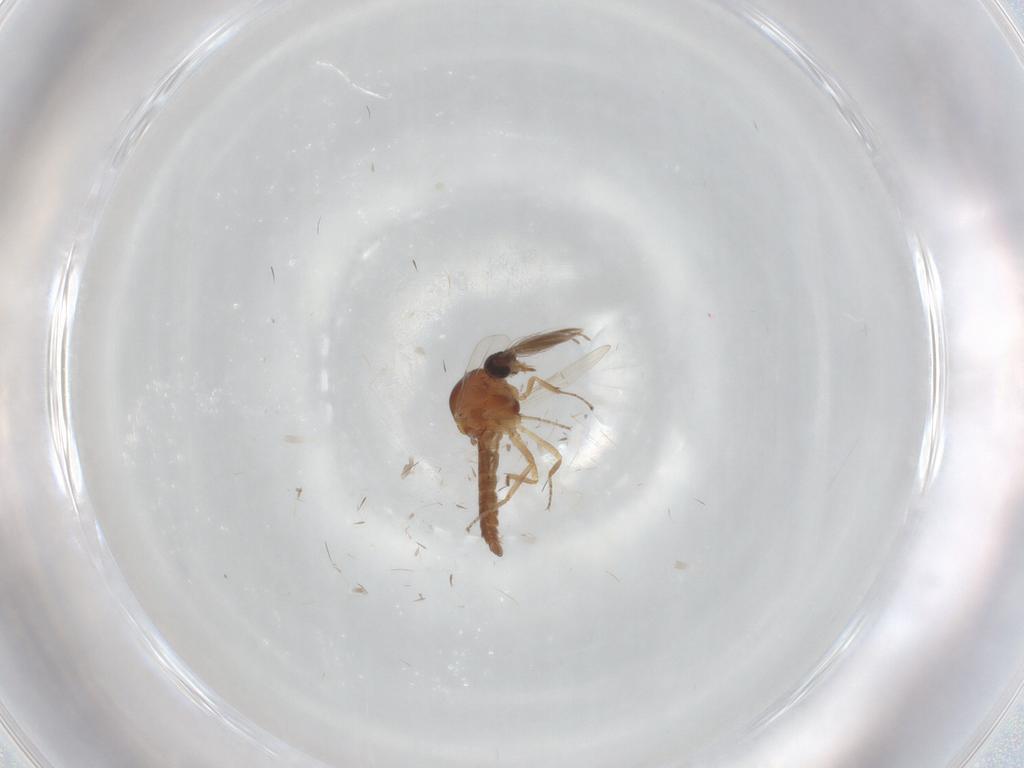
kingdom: Animalia
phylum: Arthropoda
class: Insecta
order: Diptera
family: Ceratopogonidae
